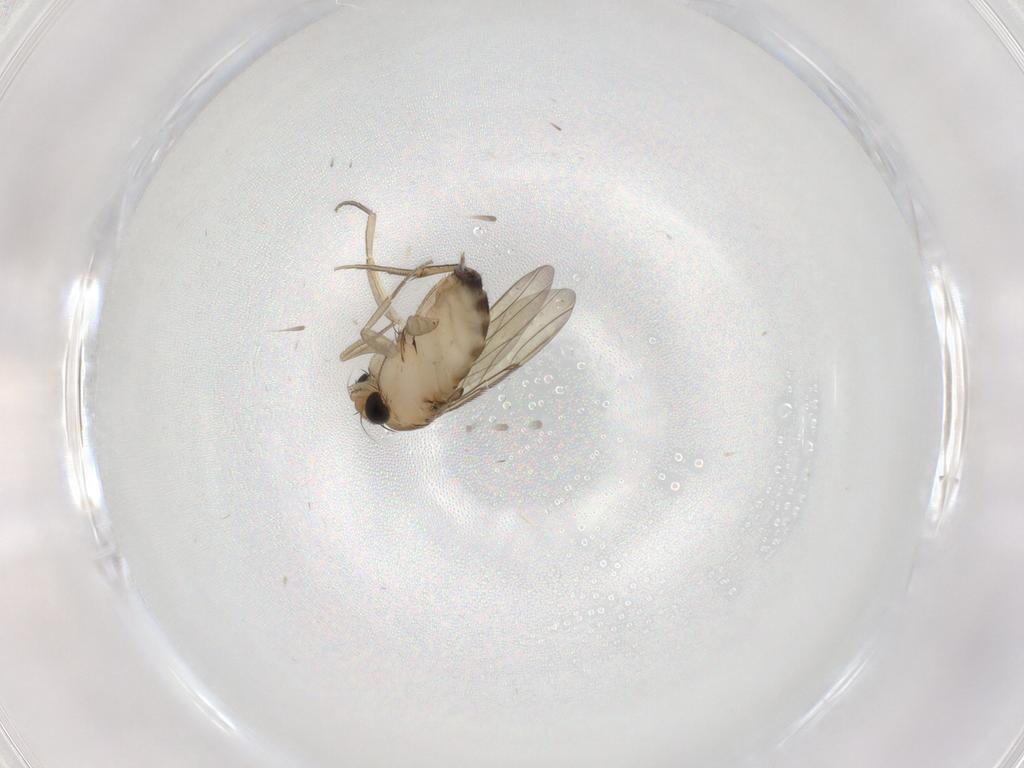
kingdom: Animalia
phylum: Arthropoda
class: Insecta
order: Diptera
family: Phoridae
